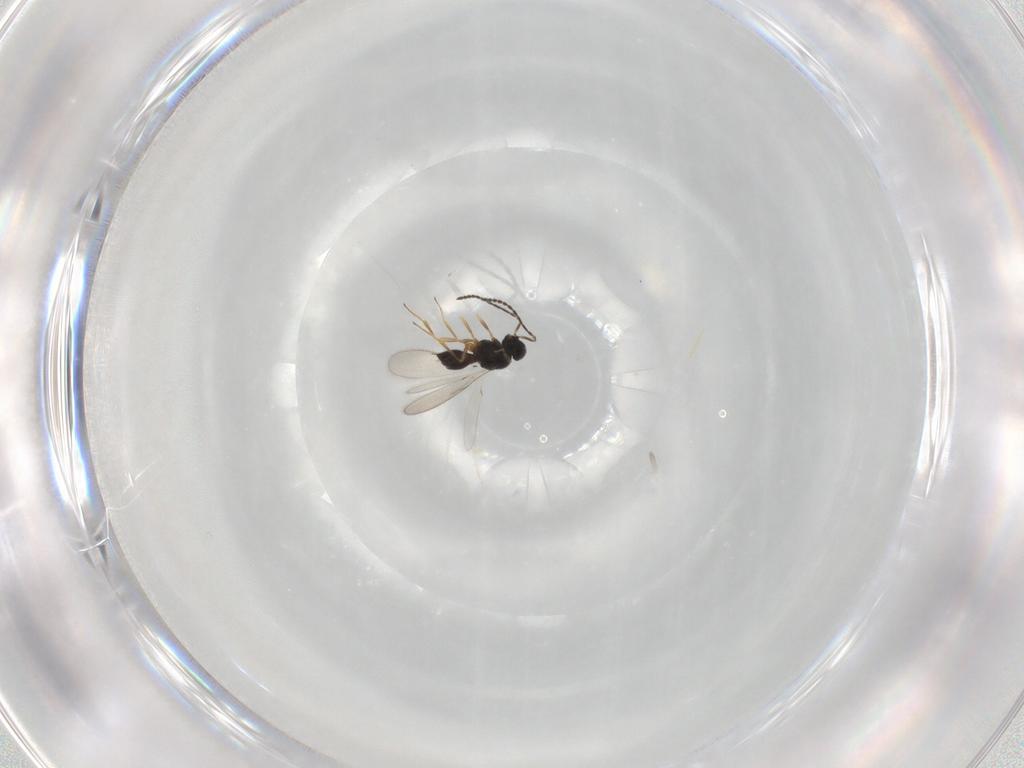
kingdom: Animalia
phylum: Arthropoda
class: Insecta
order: Hymenoptera
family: Scelionidae
